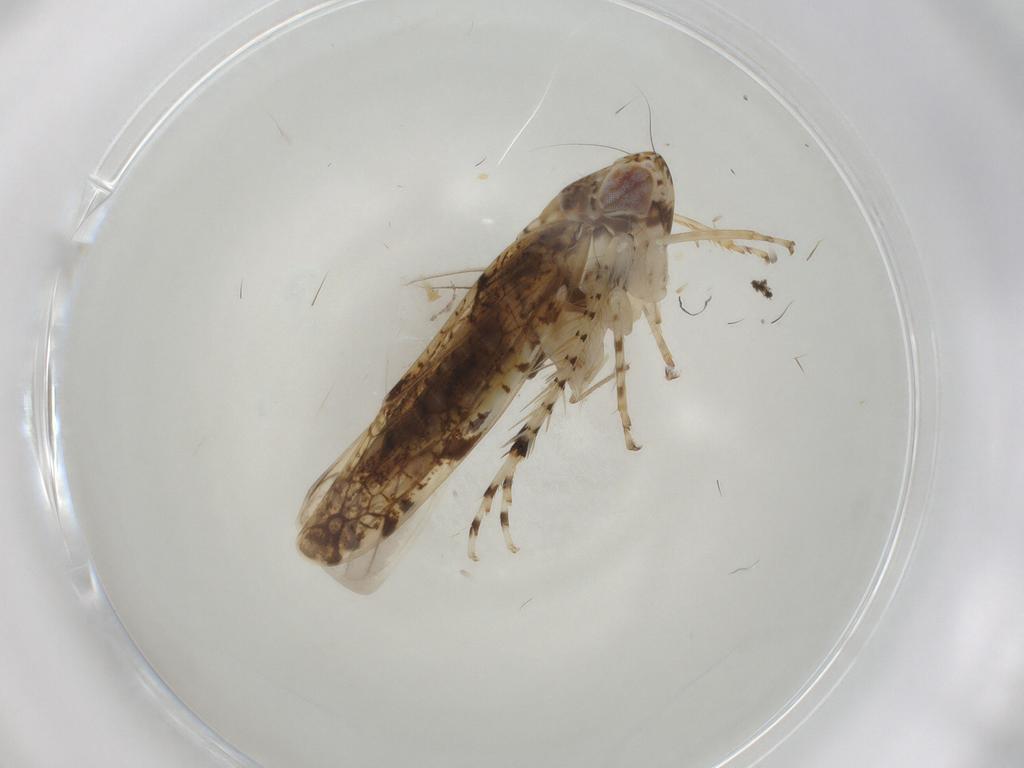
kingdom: Animalia
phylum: Arthropoda
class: Insecta
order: Hemiptera
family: Cicadellidae
